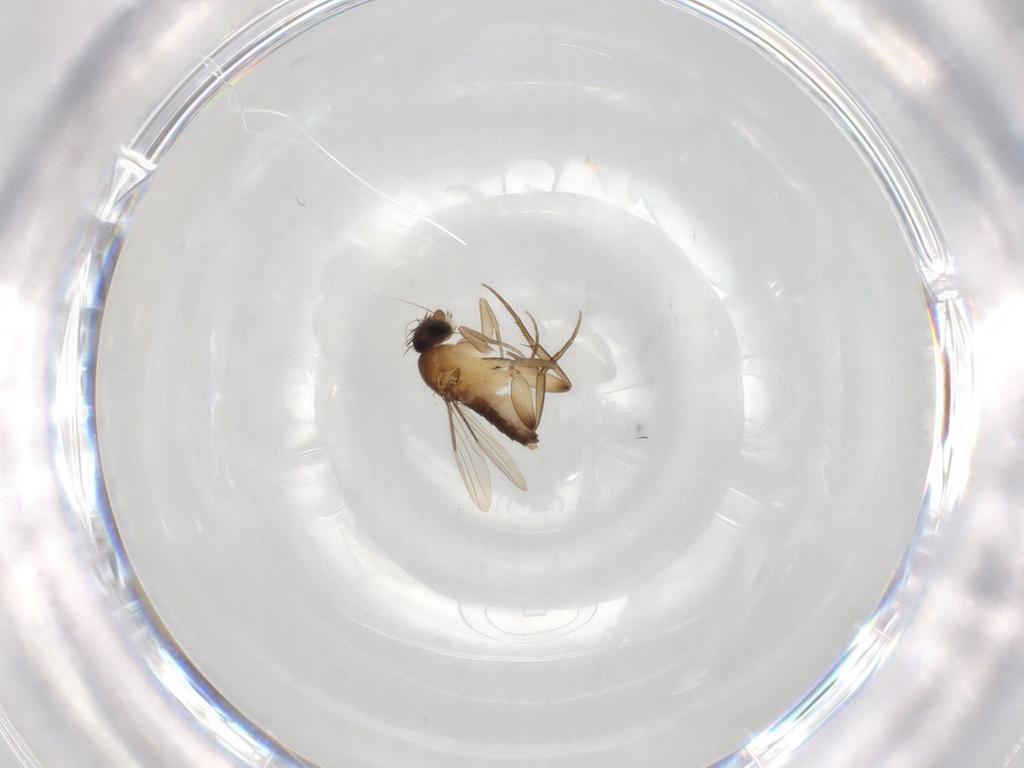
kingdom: Animalia
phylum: Arthropoda
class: Insecta
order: Diptera
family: Phoridae
